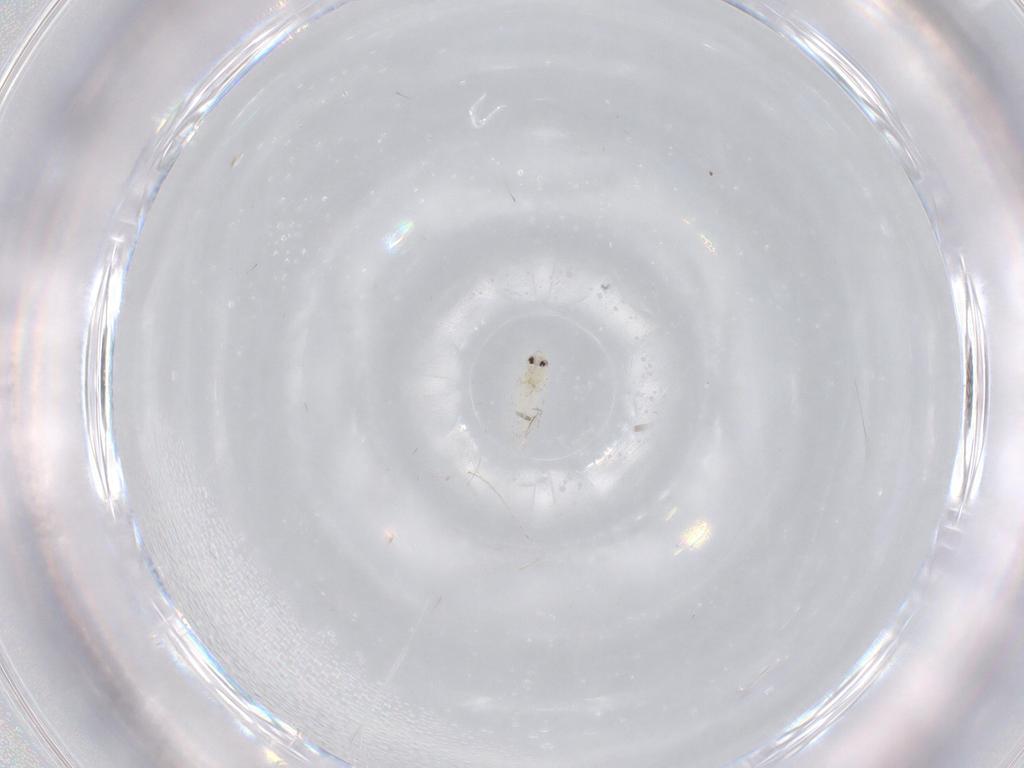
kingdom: Animalia
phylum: Arthropoda
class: Insecta
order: Hemiptera
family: Aleyrodidae
